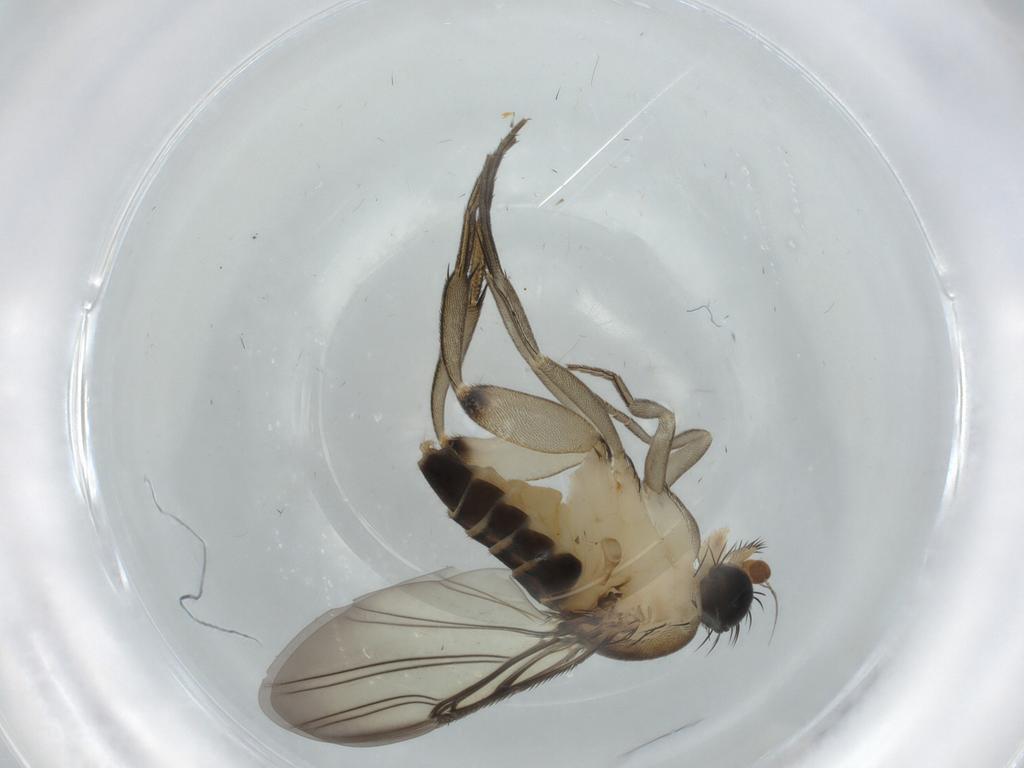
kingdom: Animalia
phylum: Arthropoda
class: Insecta
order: Diptera
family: Phoridae
